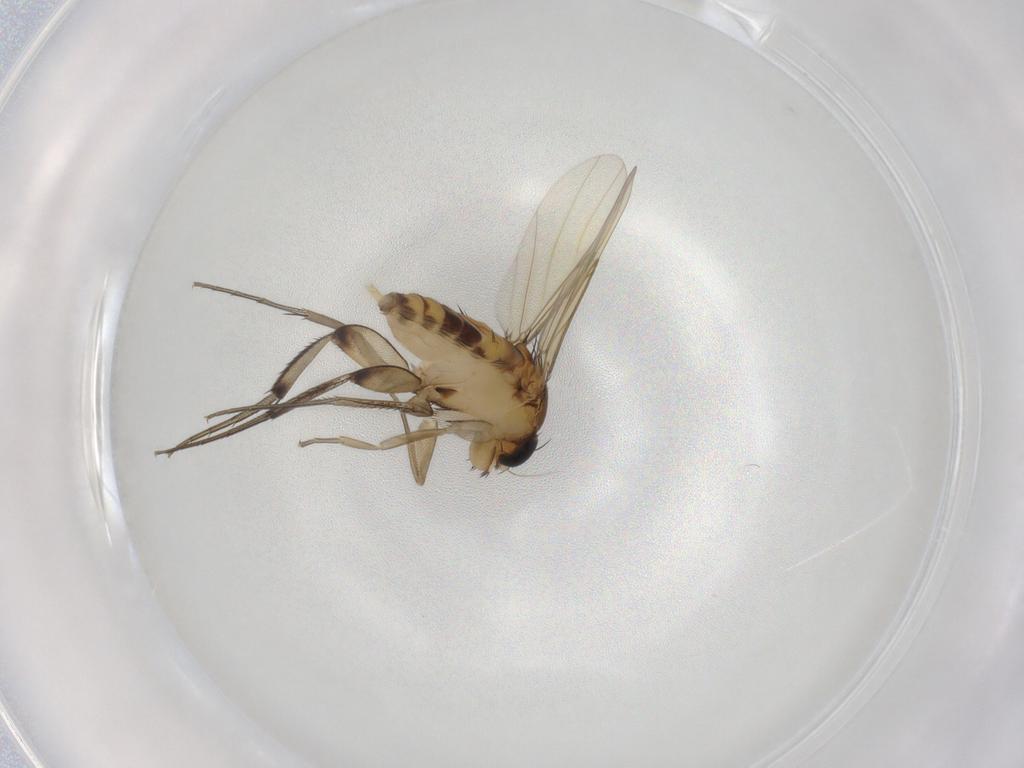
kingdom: Animalia
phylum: Arthropoda
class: Insecta
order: Diptera
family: Phoridae
